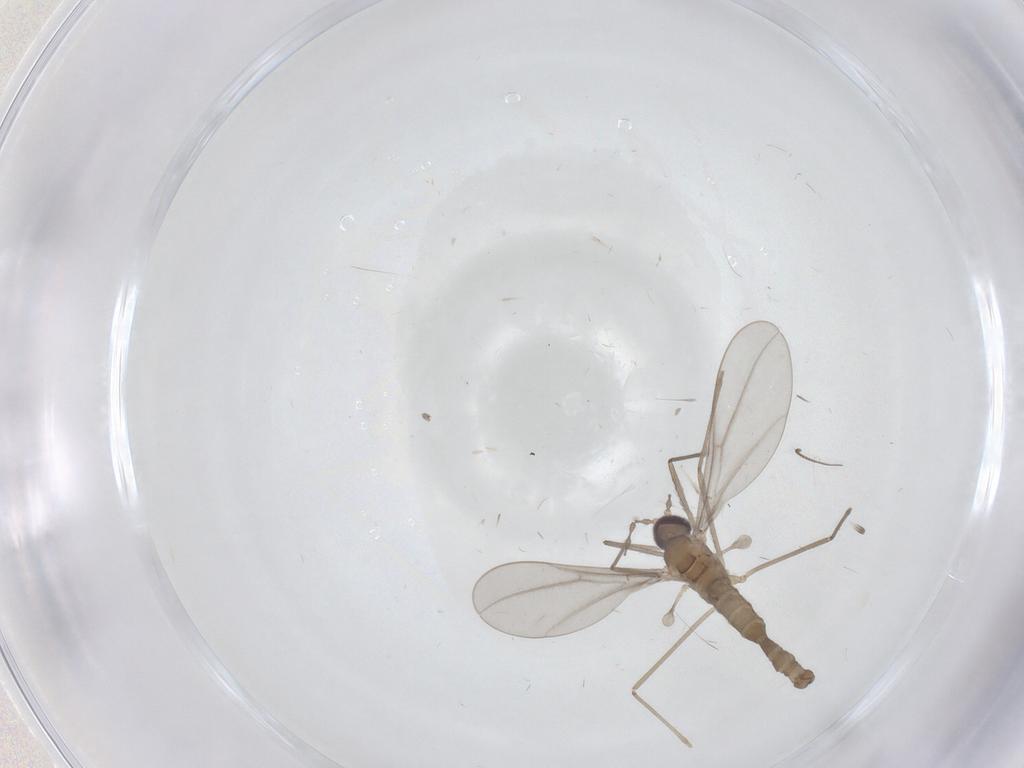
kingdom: Animalia
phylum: Arthropoda
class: Insecta
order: Diptera
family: Cecidomyiidae
